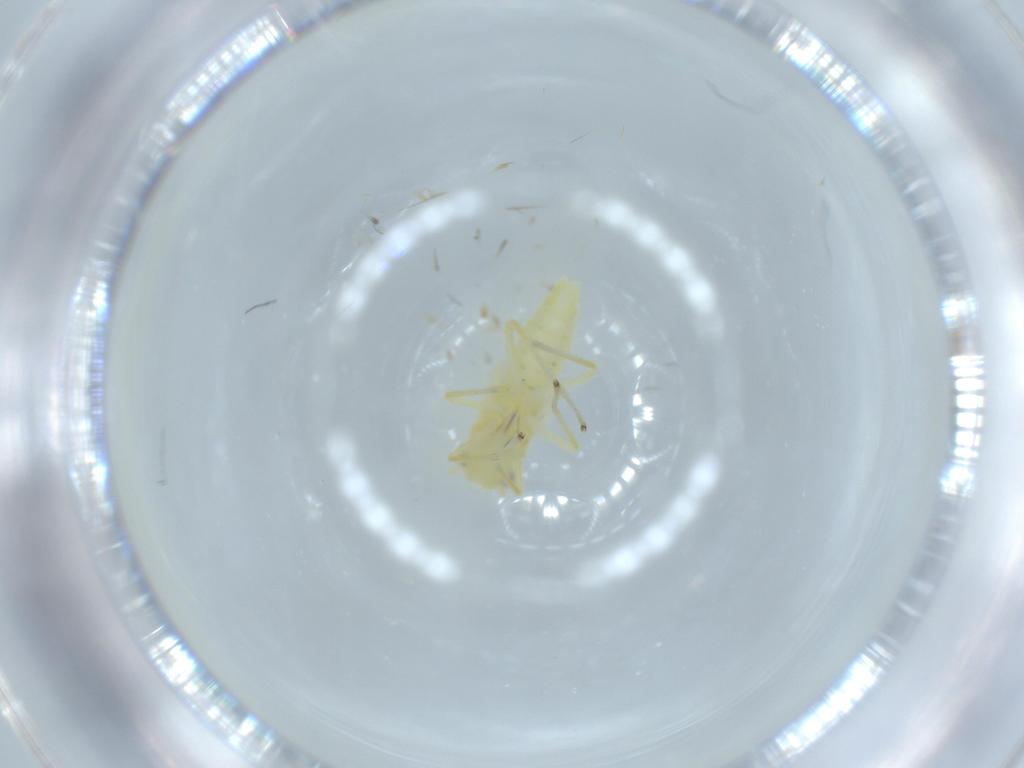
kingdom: Animalia
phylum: Arthropoda
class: Insecta
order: Hemiptera
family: Cicadellidae
